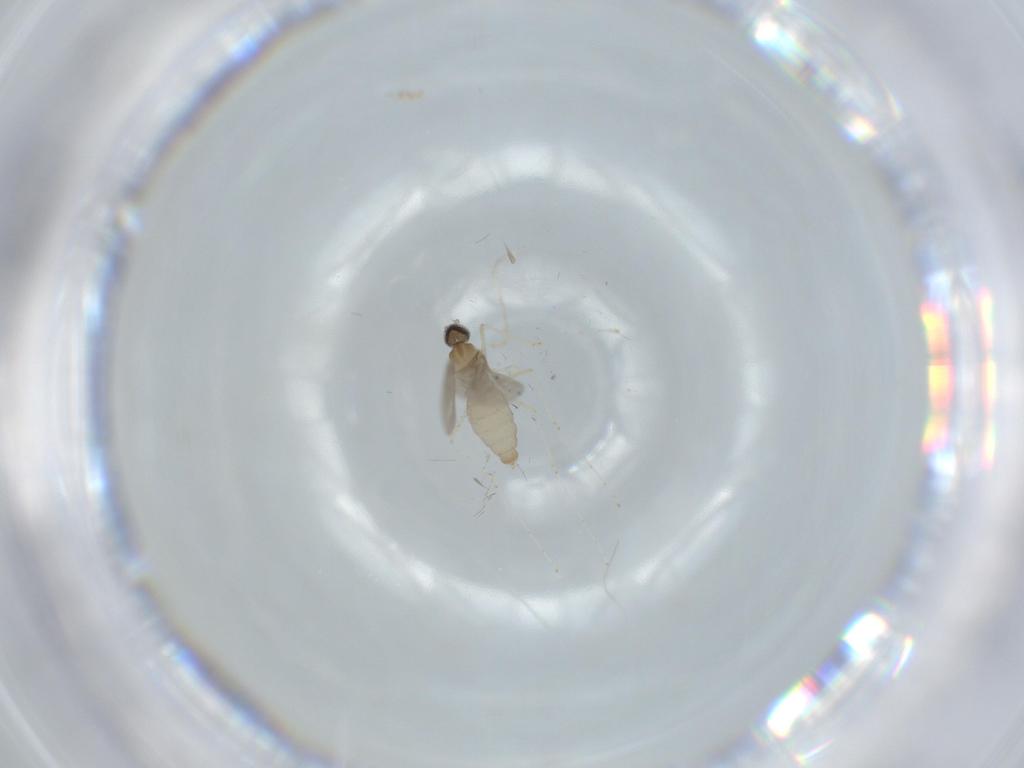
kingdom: Animalia
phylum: Arthropoda
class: Insecta
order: Diptera
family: Cecidomyiidae
